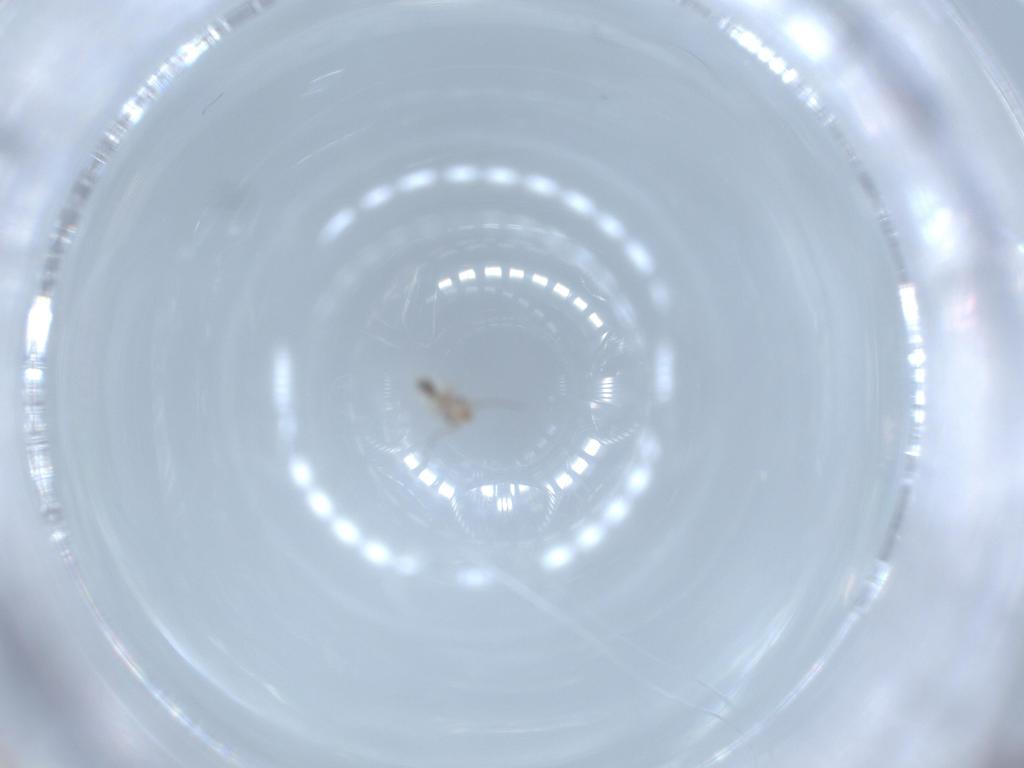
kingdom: Animalia
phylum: Arthropoda
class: Insecta
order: Psocodea
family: Lepidopsocidae
